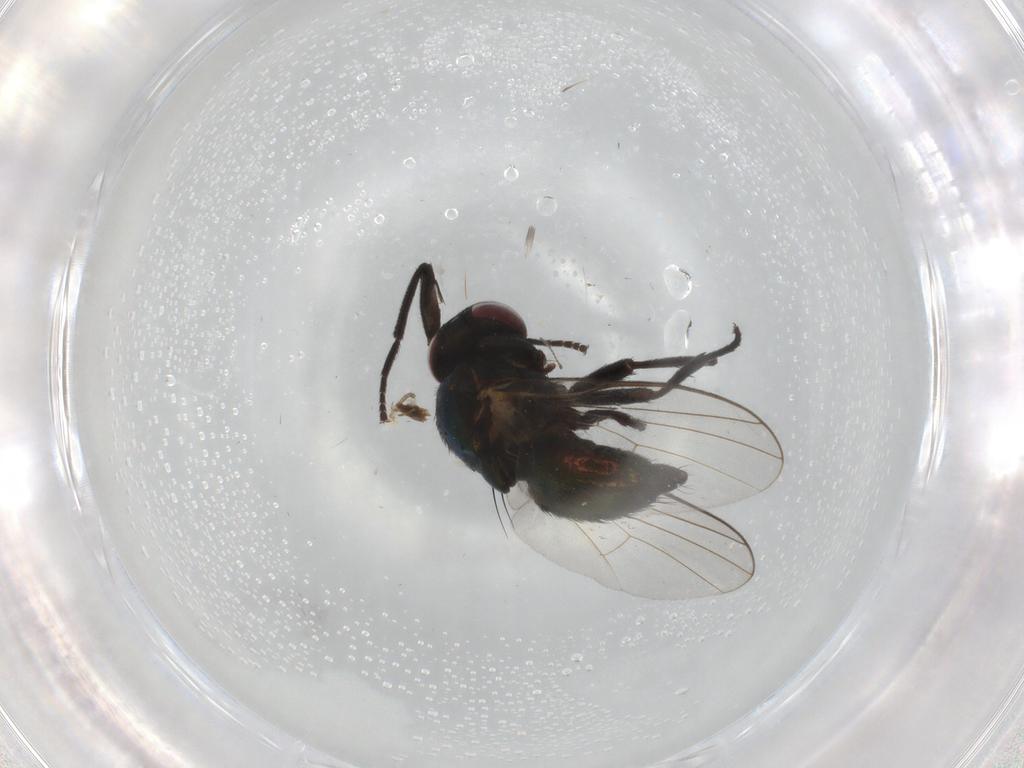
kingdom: Animalia
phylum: Arthropoda
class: Insecta
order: Diptera
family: Agromyzidae
